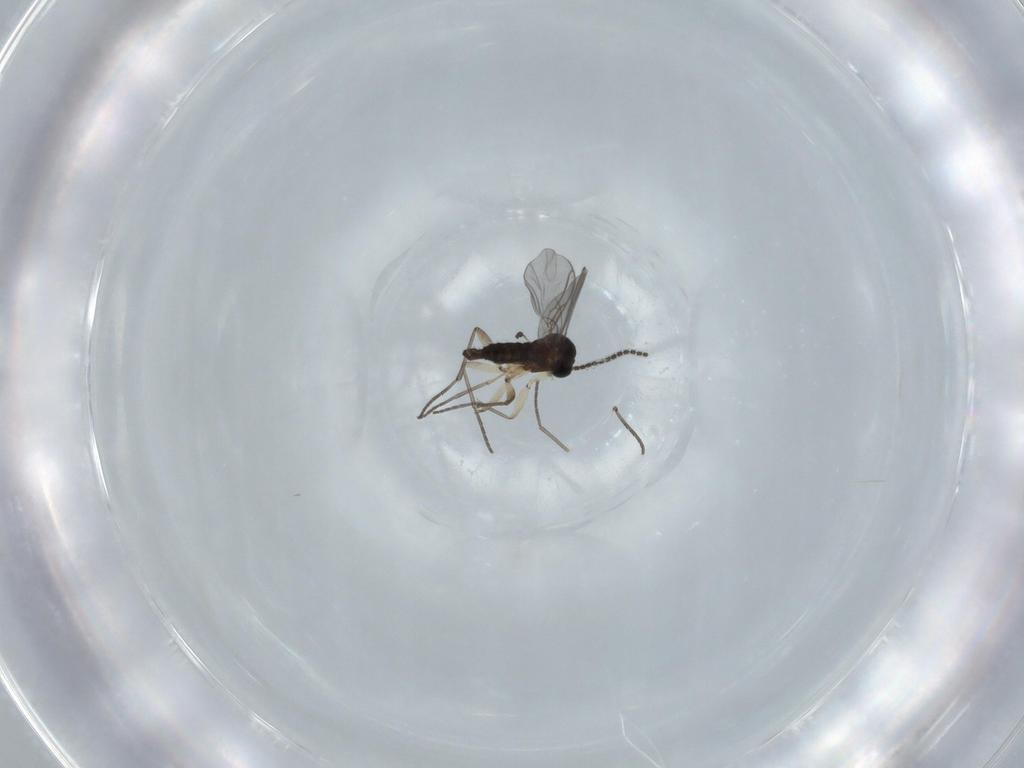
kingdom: Animalia
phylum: Arthropoda
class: Insecta
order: Diptera
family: Sciaridae
